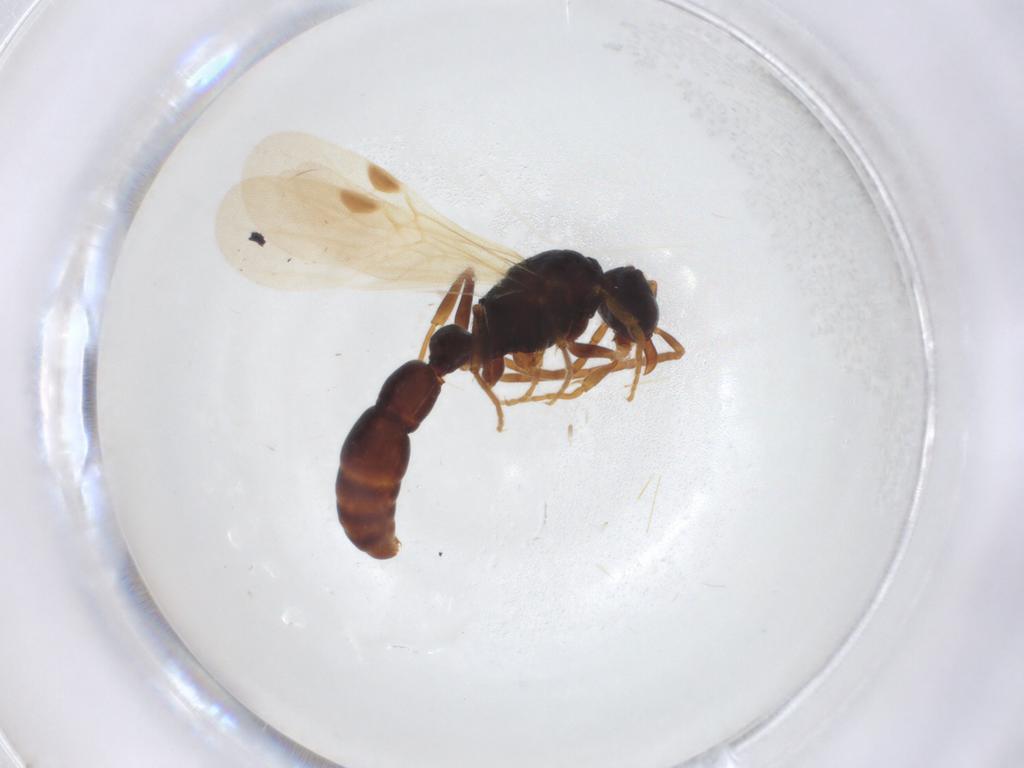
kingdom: Animalia
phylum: Arthropoda
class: Insecta
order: Hymenoptera
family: Formicidae
